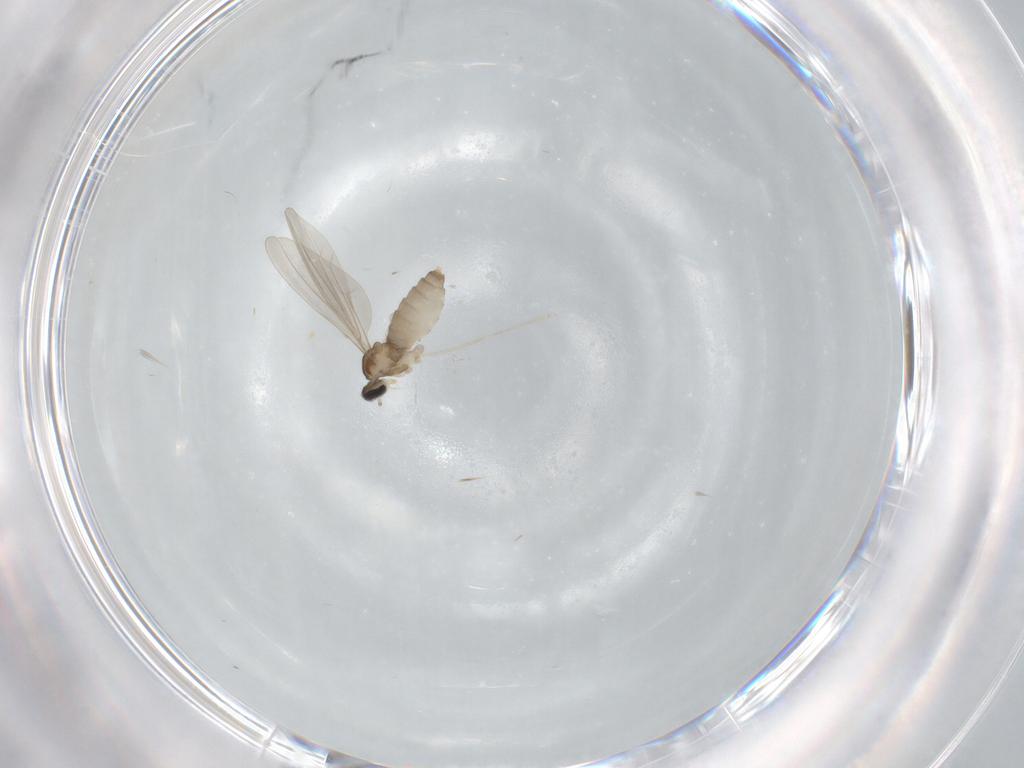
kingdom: Animalia
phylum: Arthropoda
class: Insecta
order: Diptera
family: Cecidomyiidae
